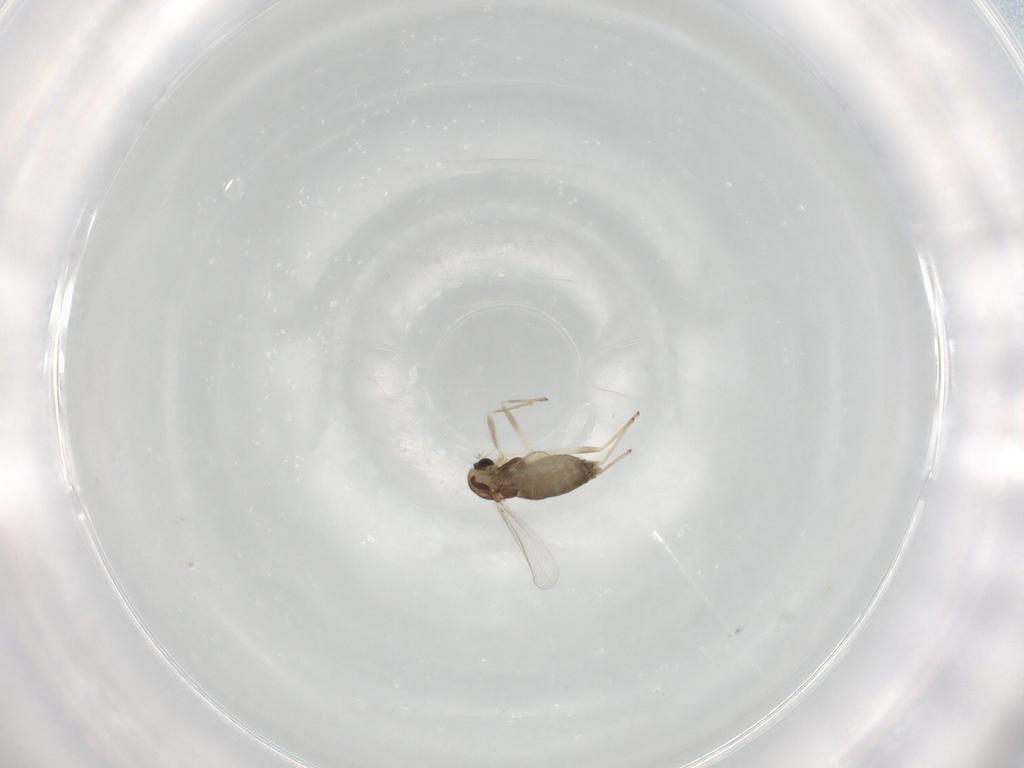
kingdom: Animalia
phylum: Arthropoda
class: Insecta
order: Diptera
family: Chironomidae
